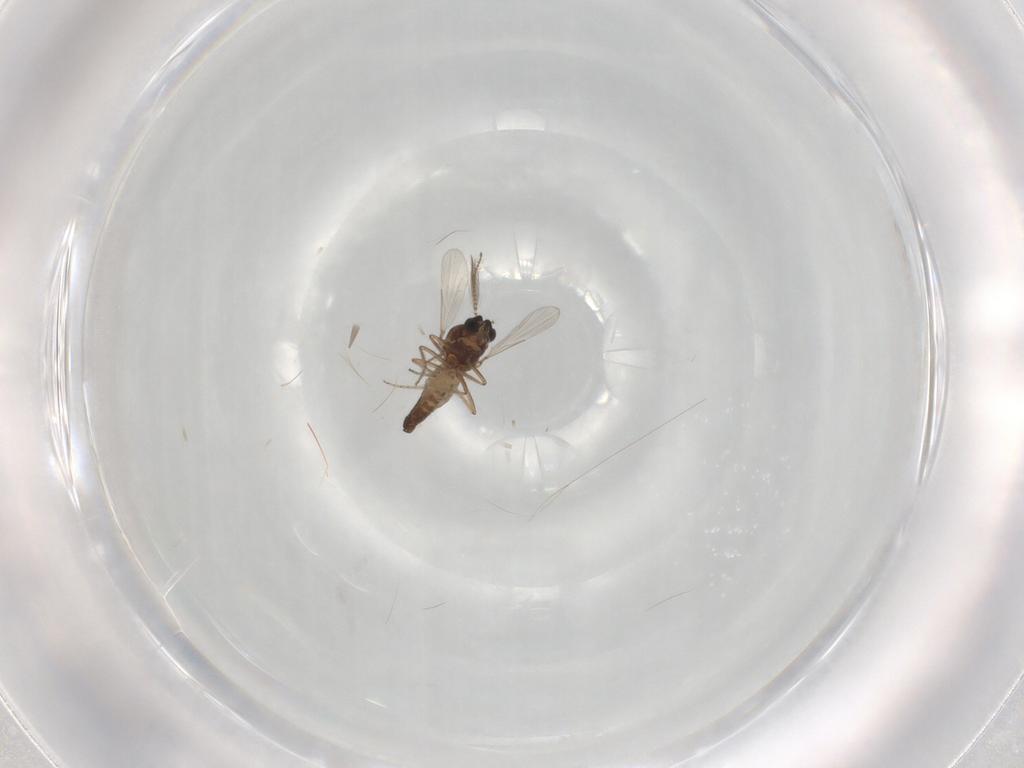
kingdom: Animalia
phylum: Arthropoda
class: Insecta
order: Diptera
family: Ceratopogonidae
